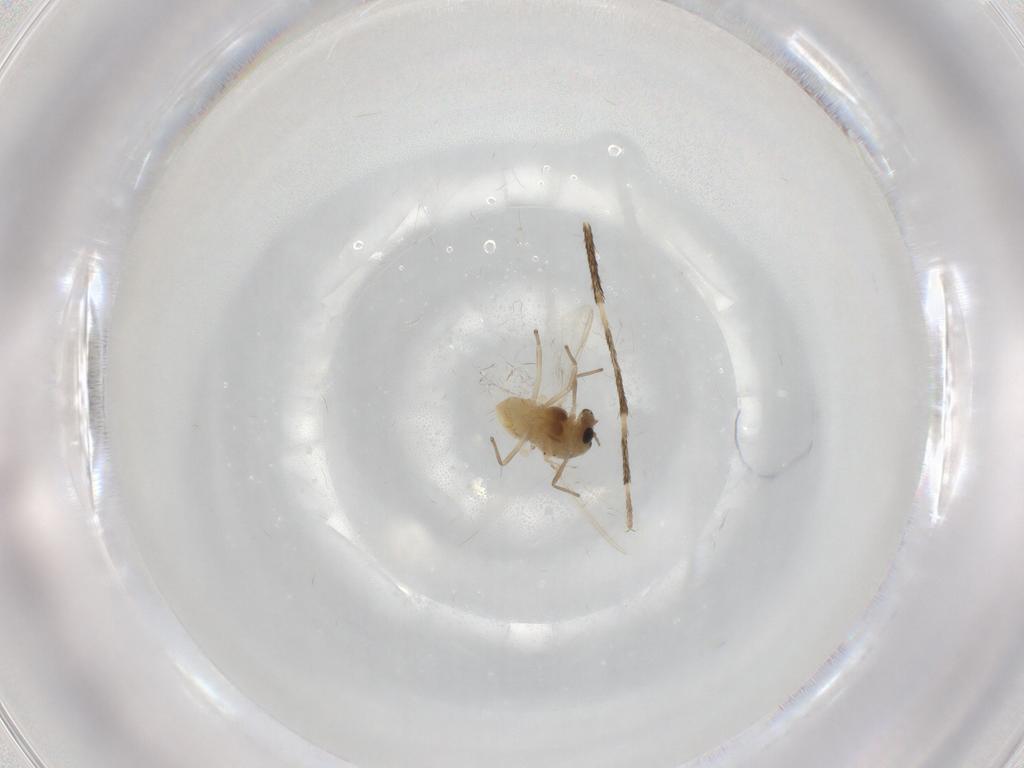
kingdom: Animalia
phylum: Arthropoda
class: Insecta
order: Diptera
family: Chironomidae
